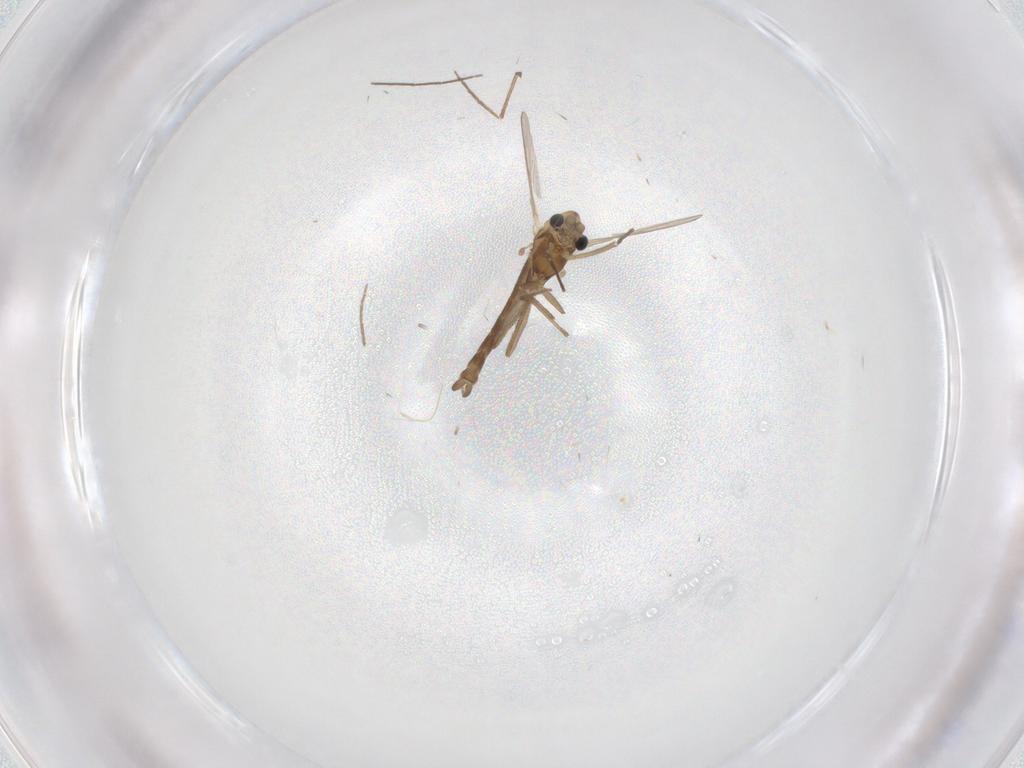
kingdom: Animalia
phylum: Arthropoda
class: Insecta
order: Diptera
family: Chironomidae
